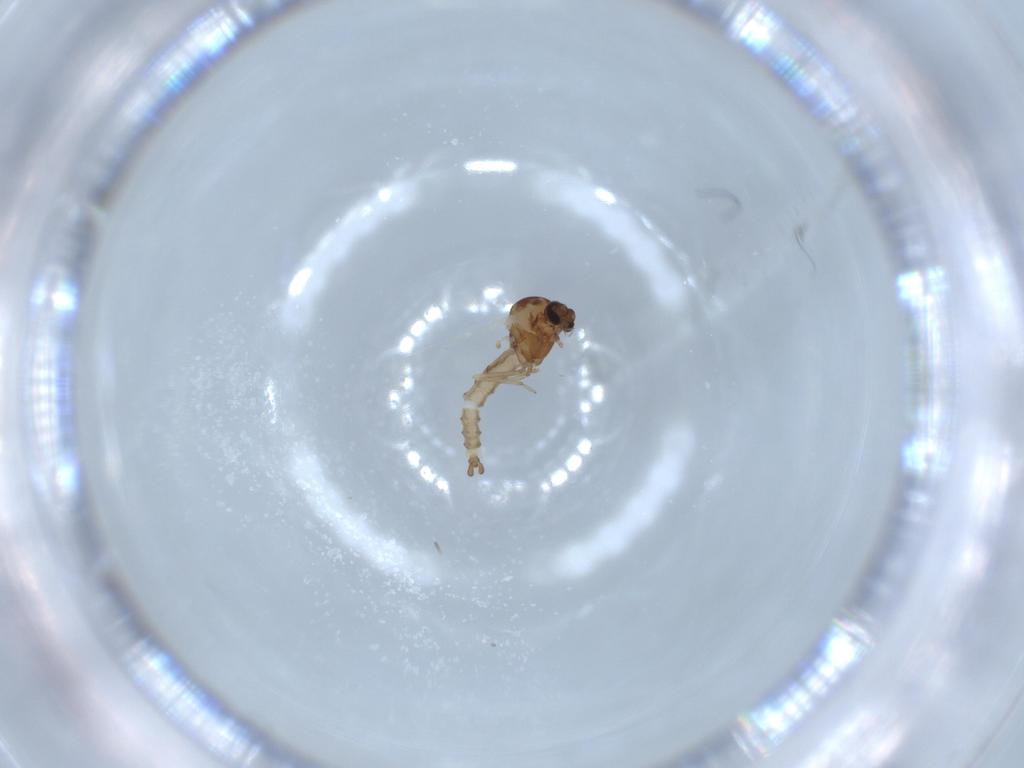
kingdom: Animalia
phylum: Arthropoda
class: Insecta
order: Diptera
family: Ceratopogonidae
